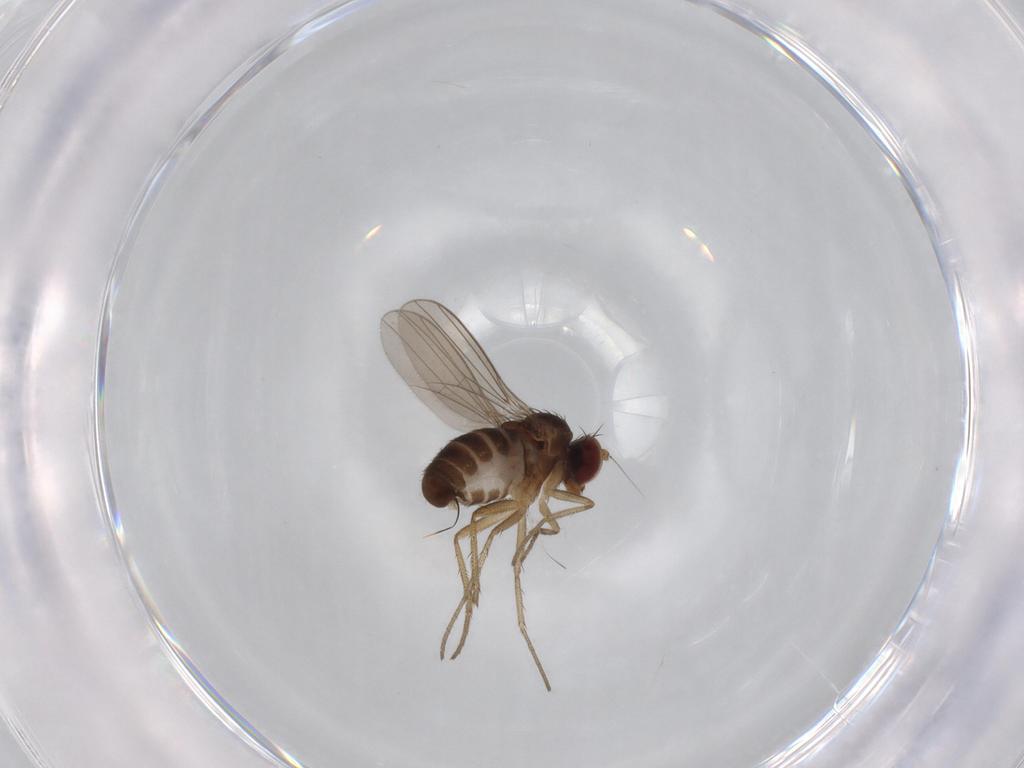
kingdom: Animalia
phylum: Arthropoda
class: Insecta
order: Diptera
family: Dolichopodidae
